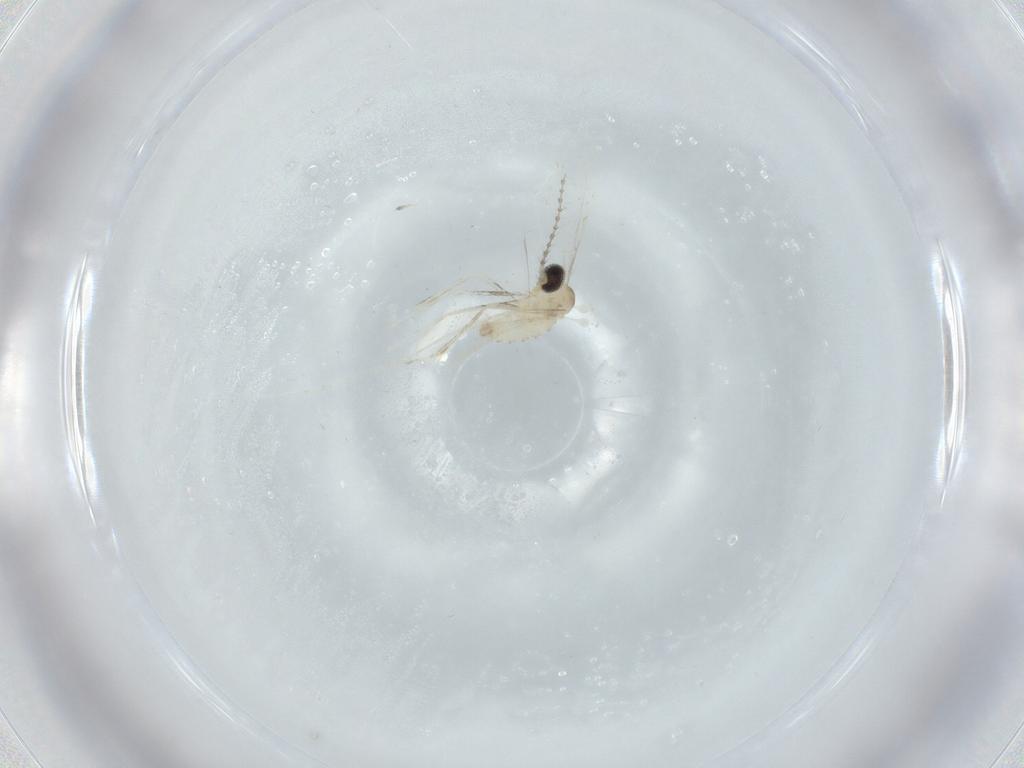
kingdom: Animalia
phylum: Arthropoda
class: Insecta
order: Diptera
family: Cecidomyiidae
